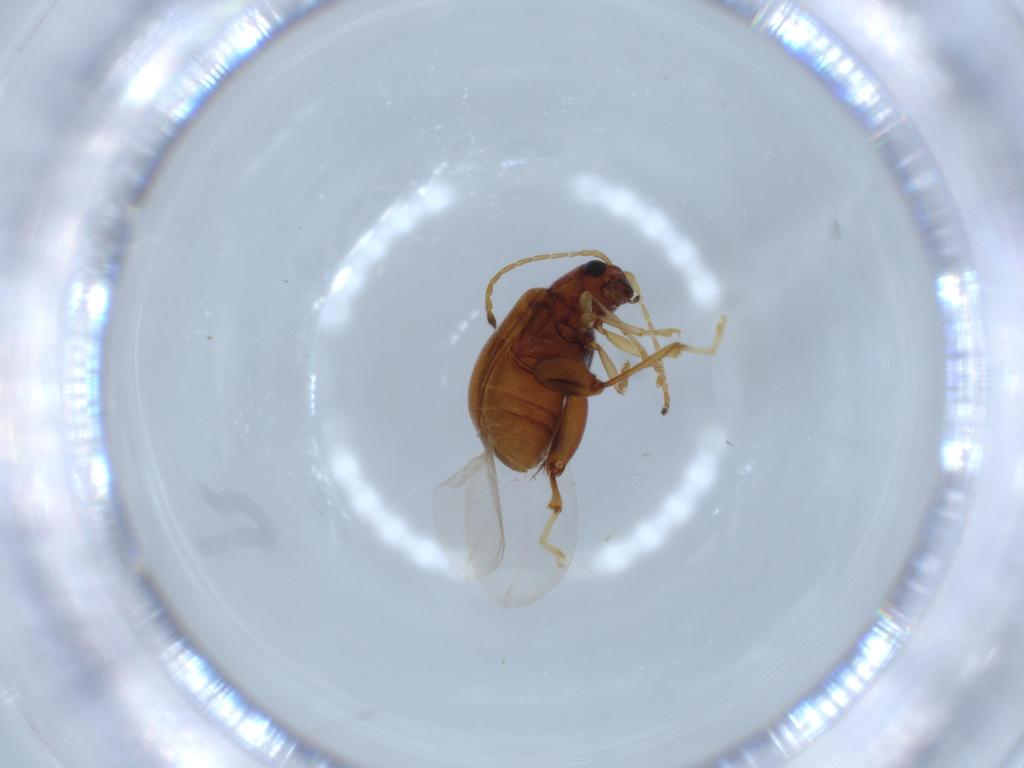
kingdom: Animalia
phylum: Arthropoda
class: Insecta
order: Coleoptera
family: Chrysomelidae
